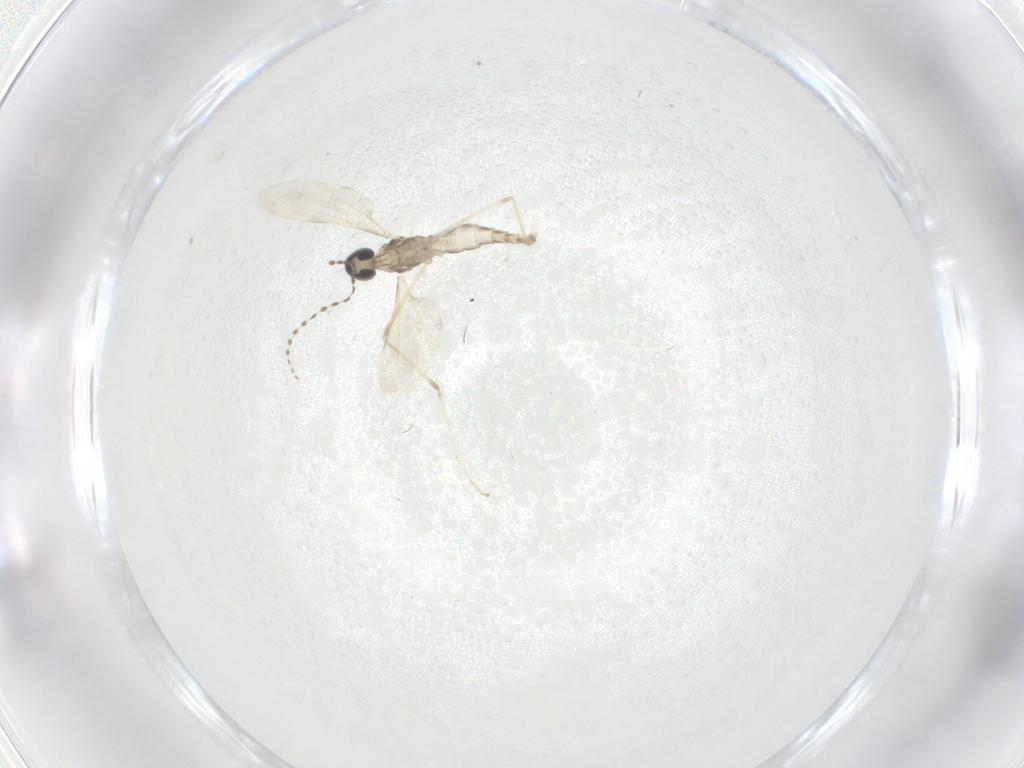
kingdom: Animalia
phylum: Arthropoda
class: Insecta
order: Diptera
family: Cecidomyiidae
